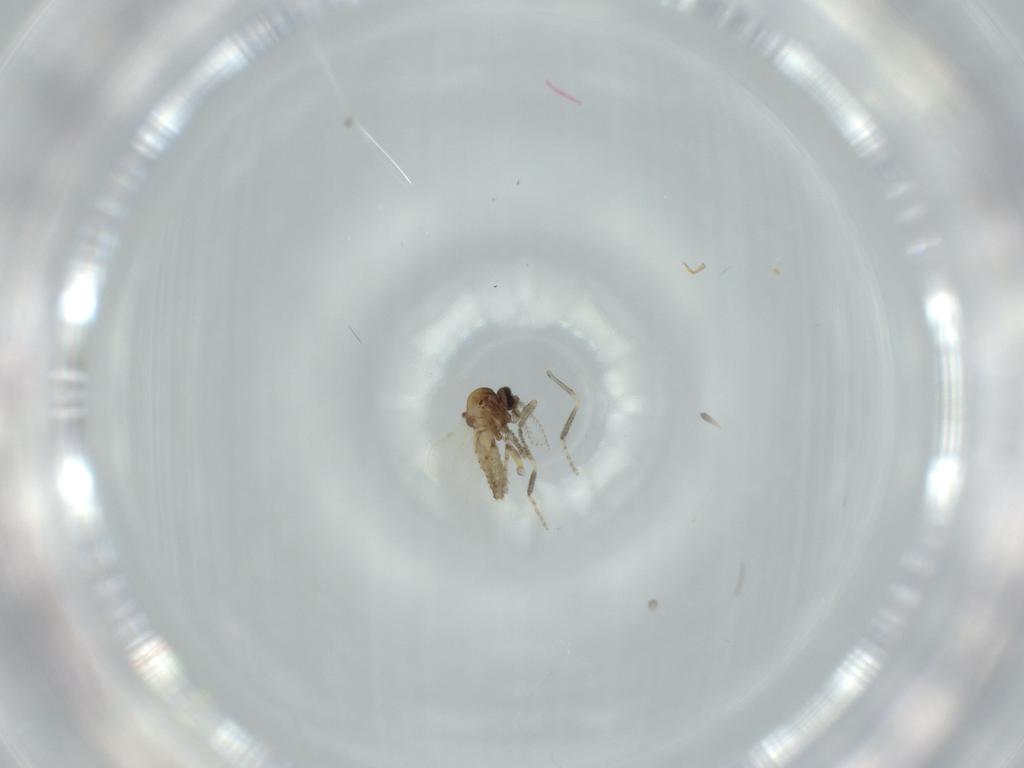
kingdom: Animalia
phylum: Arthropoda
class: Insecta
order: Diptera
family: Ceratopogonidae
